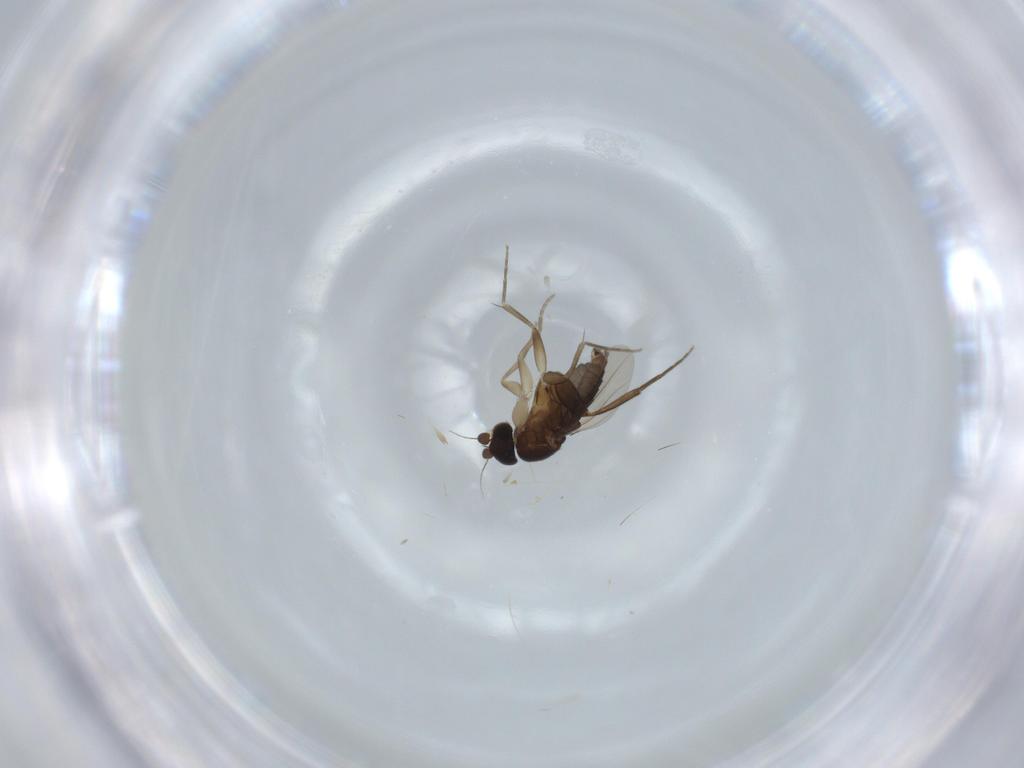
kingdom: Animalia
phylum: Arthropoda
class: Insecta
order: Diptera
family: Phoridae
